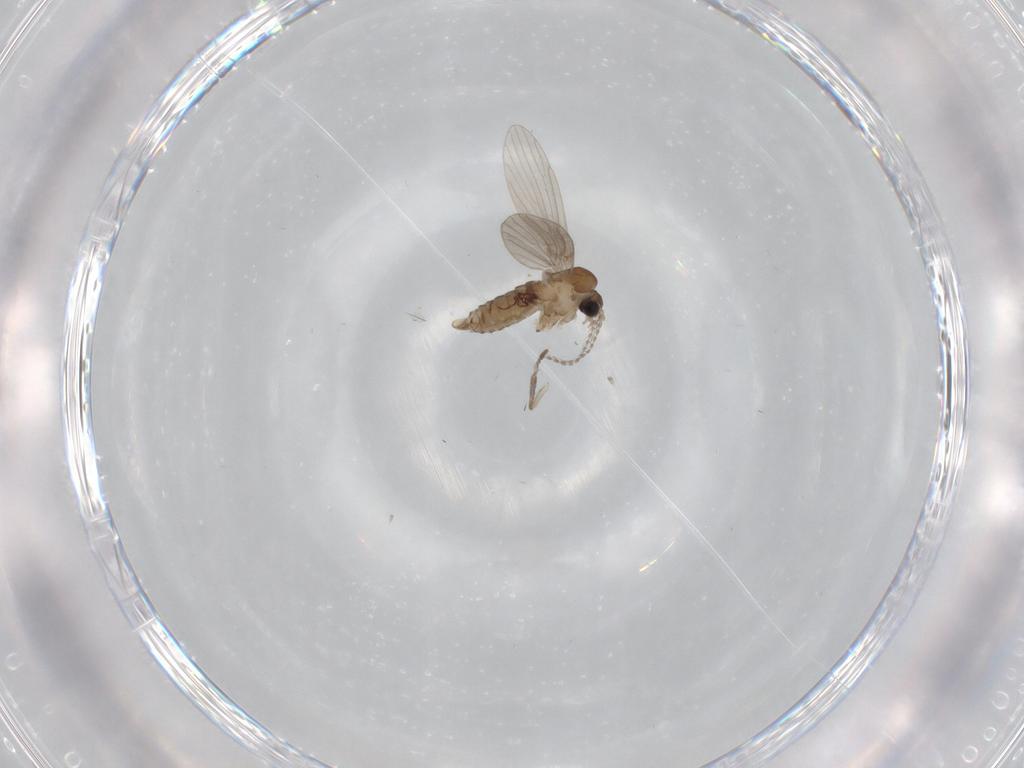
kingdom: Animalia
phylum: Arthropoda
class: Insecta
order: Diptera
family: Psychodidae
